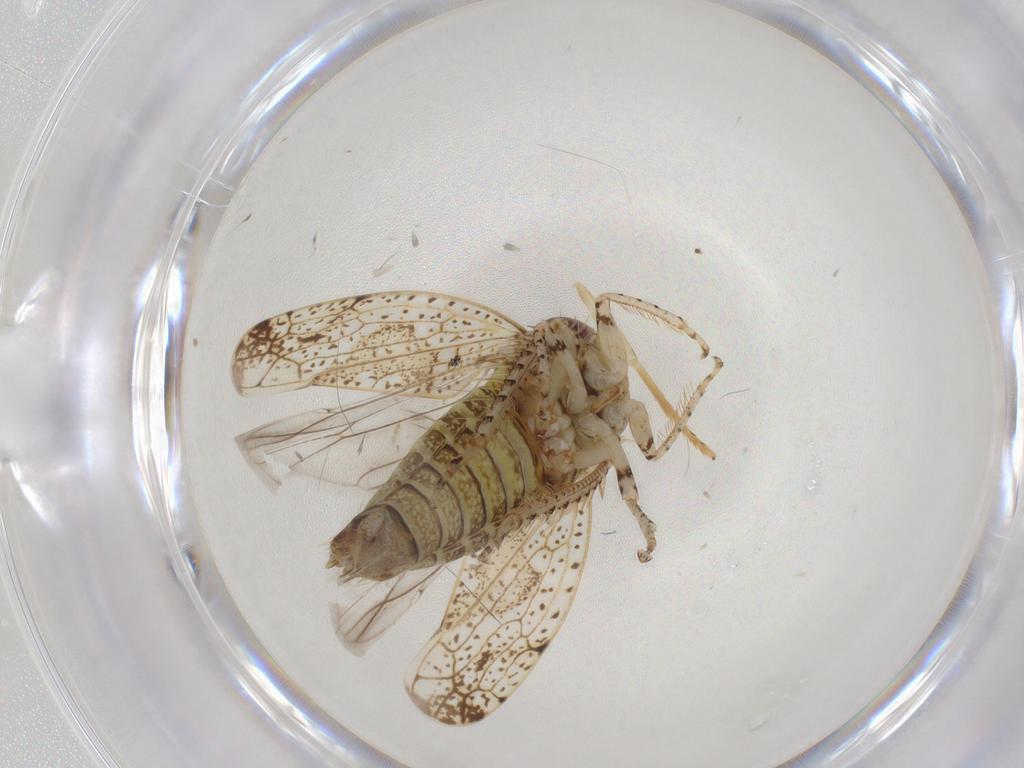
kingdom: Animalia
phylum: Arthropoda
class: Insecta
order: Hemiptera
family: Cicadellidae
